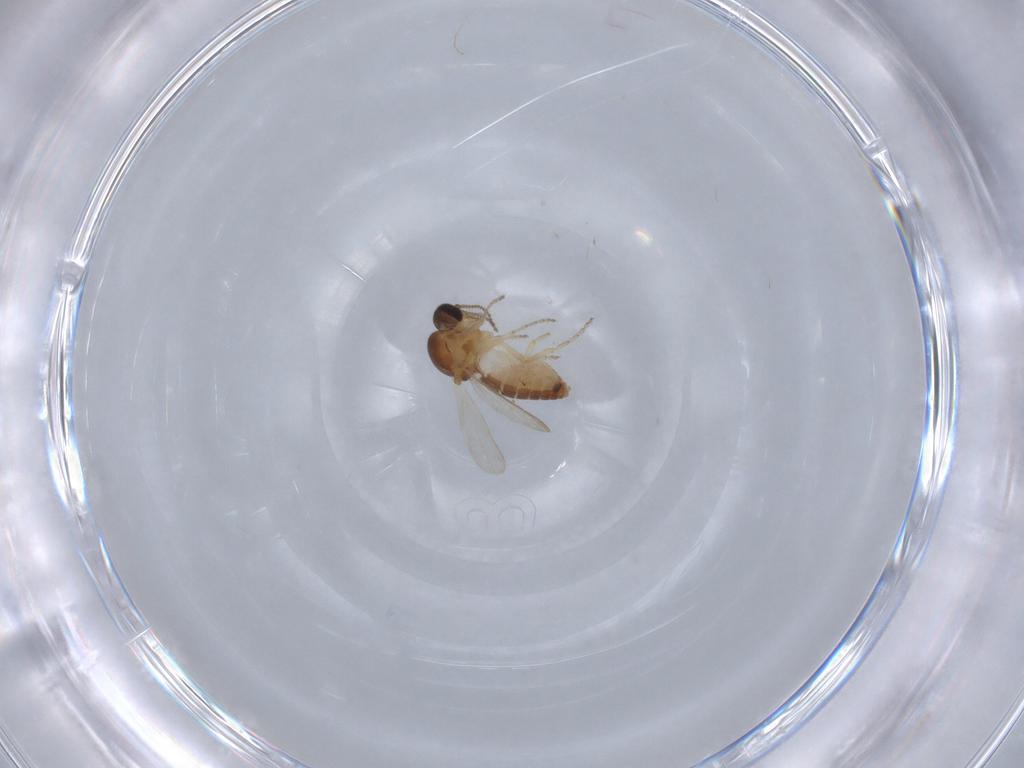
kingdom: Animalia
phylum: Arthropoda
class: Insecta
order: Diptera
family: Ceratopogonidae
